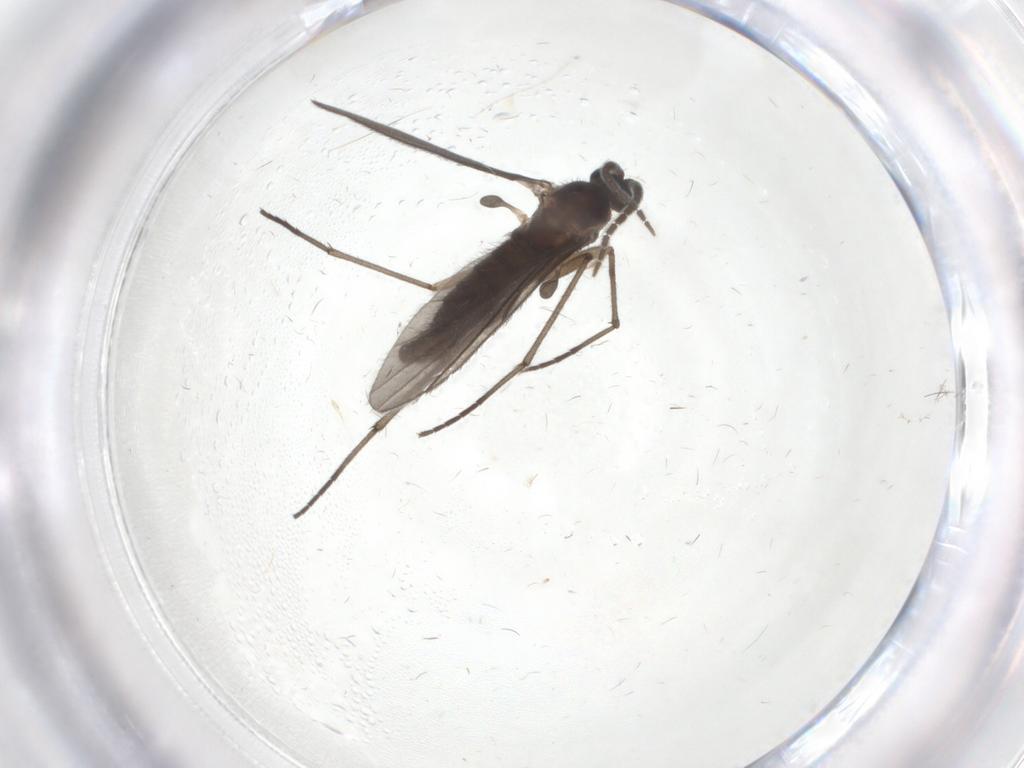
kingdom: Animalia
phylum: Arthropoda
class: Insecta
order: Diptera
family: Sciaridae
